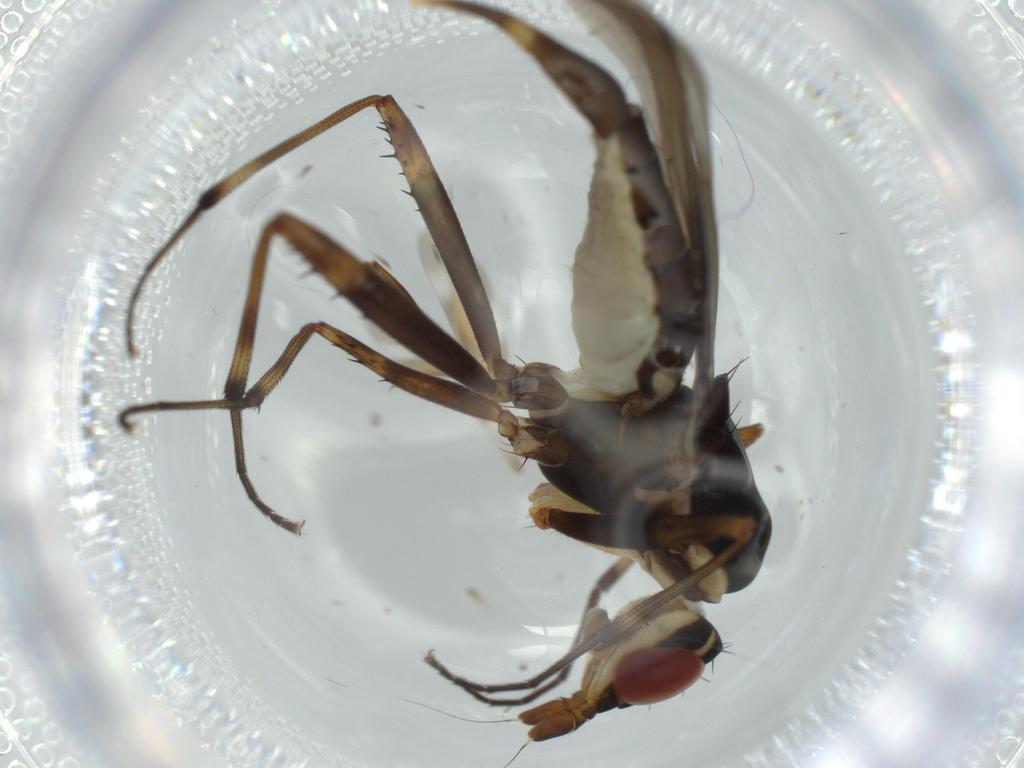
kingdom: Animalia
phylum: Arthropoda
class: Insecta
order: Diptera
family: Neriidae
